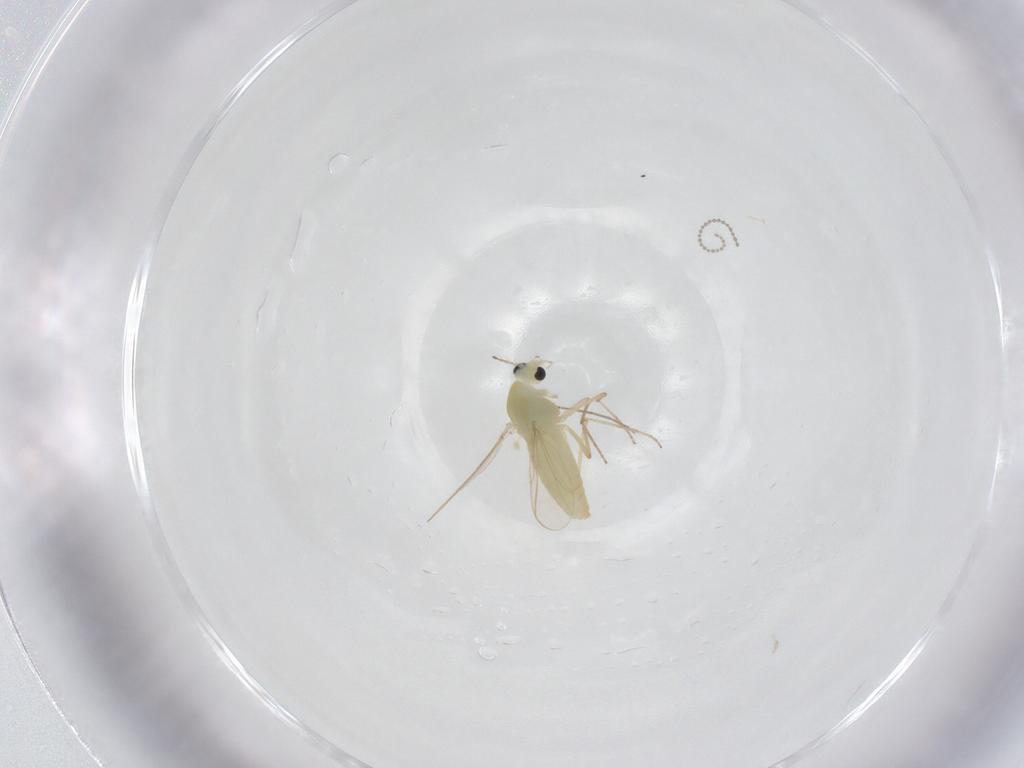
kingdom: Animalia
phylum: Arthropoda
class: Insecta
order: Diptera
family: Chironomidae
